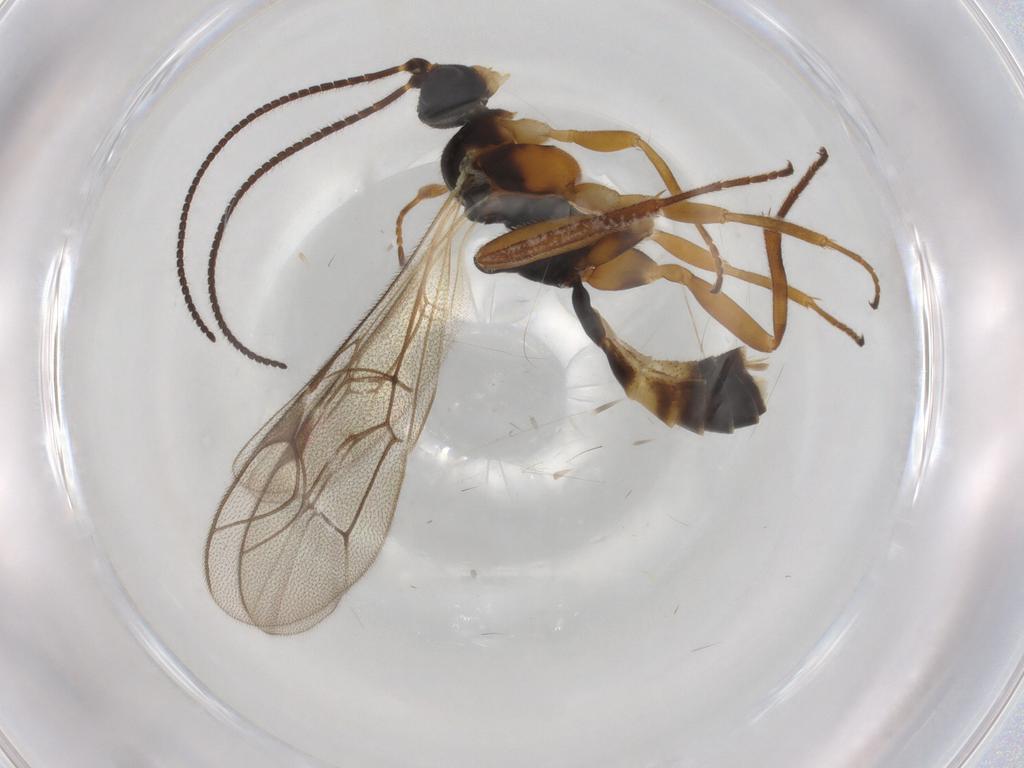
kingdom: Animalia
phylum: Arthropoda
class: Insecta
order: Hymenoptera
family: Ichneumonidae
